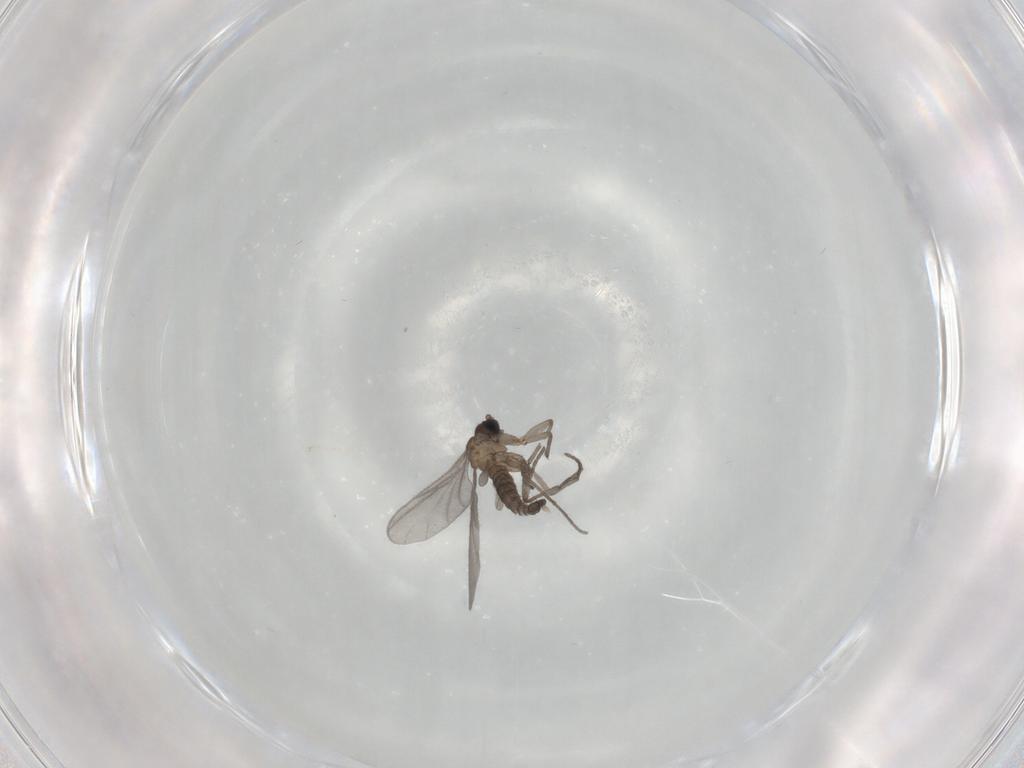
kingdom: Animalia
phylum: Arthropoda
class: Insecta
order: Diptera
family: Sciaridae
